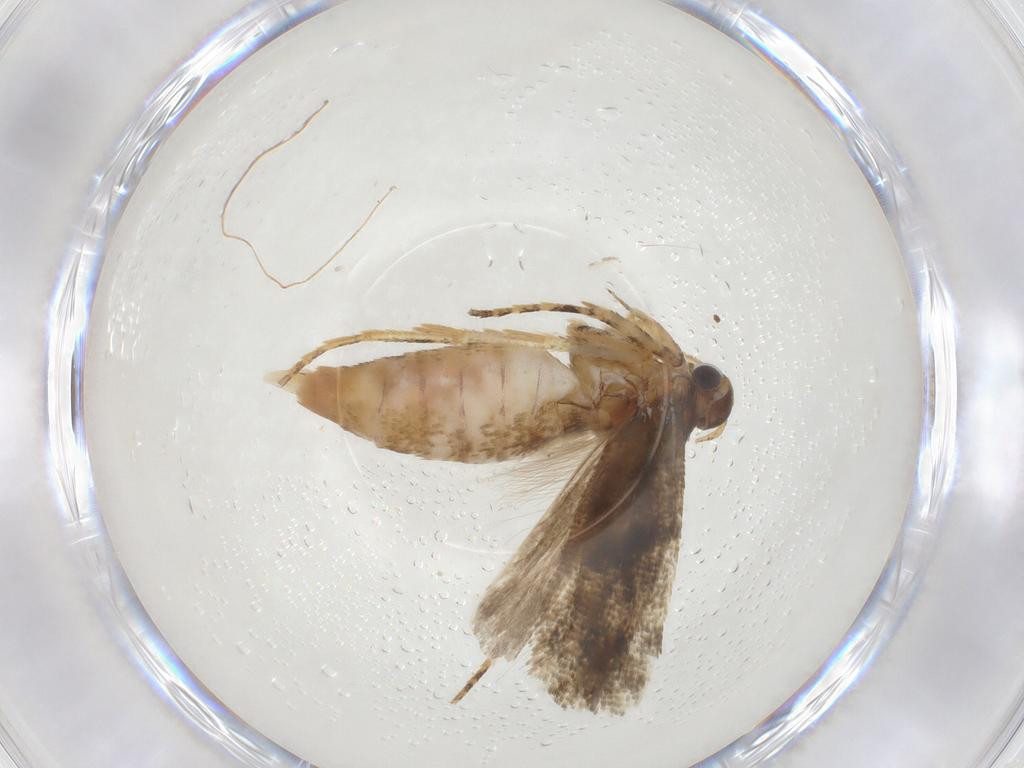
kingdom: Animalia
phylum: Arthropoda
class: Insecta
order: Lepidoptera
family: Gelechiidae
